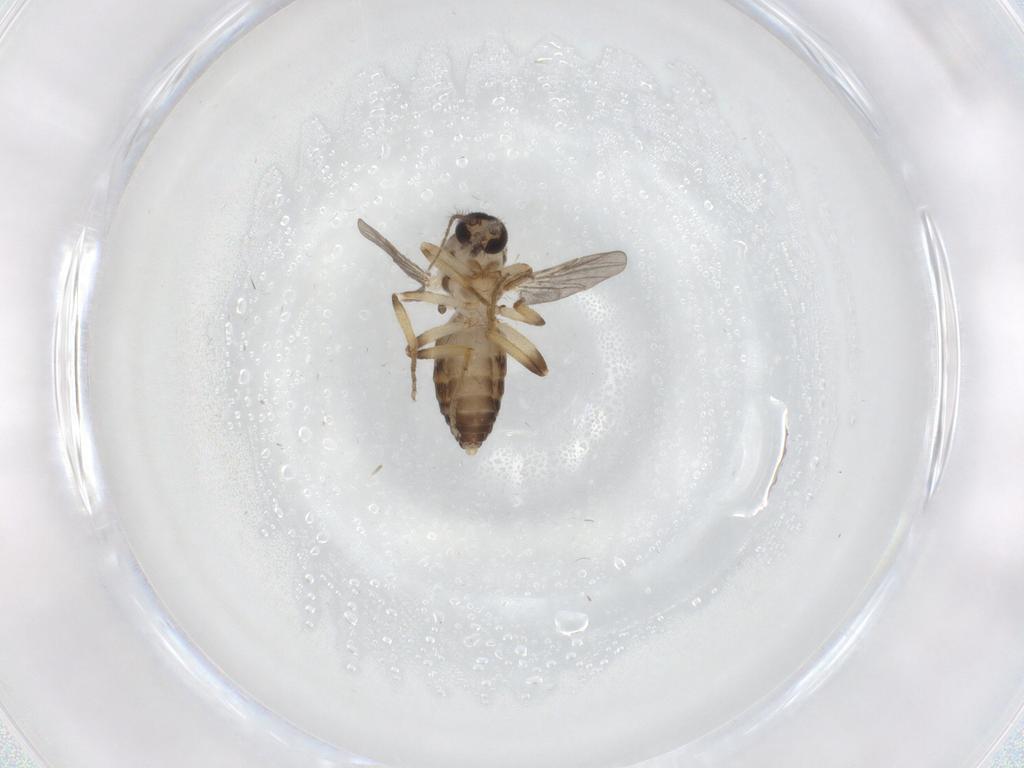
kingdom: Animalia
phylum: Arthropoda
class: Insecta
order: Diptera
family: Ceratopogonidae
